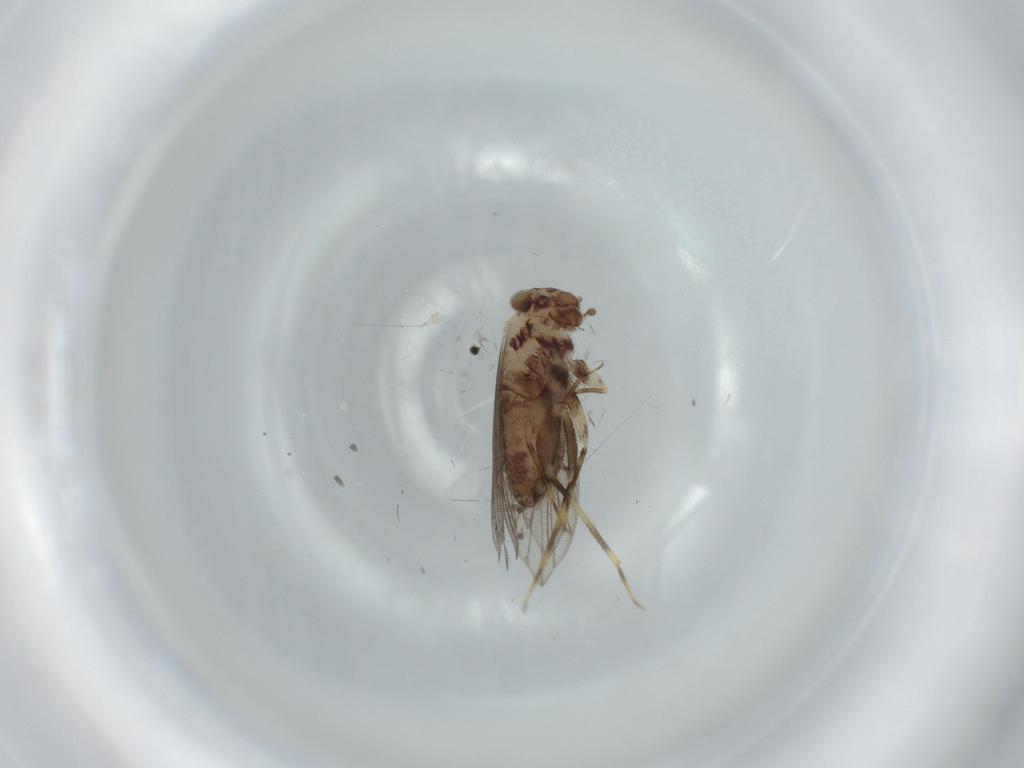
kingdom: Animalia
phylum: Arthropoda
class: Insecta
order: Psocodea
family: Lepidopsocidae
